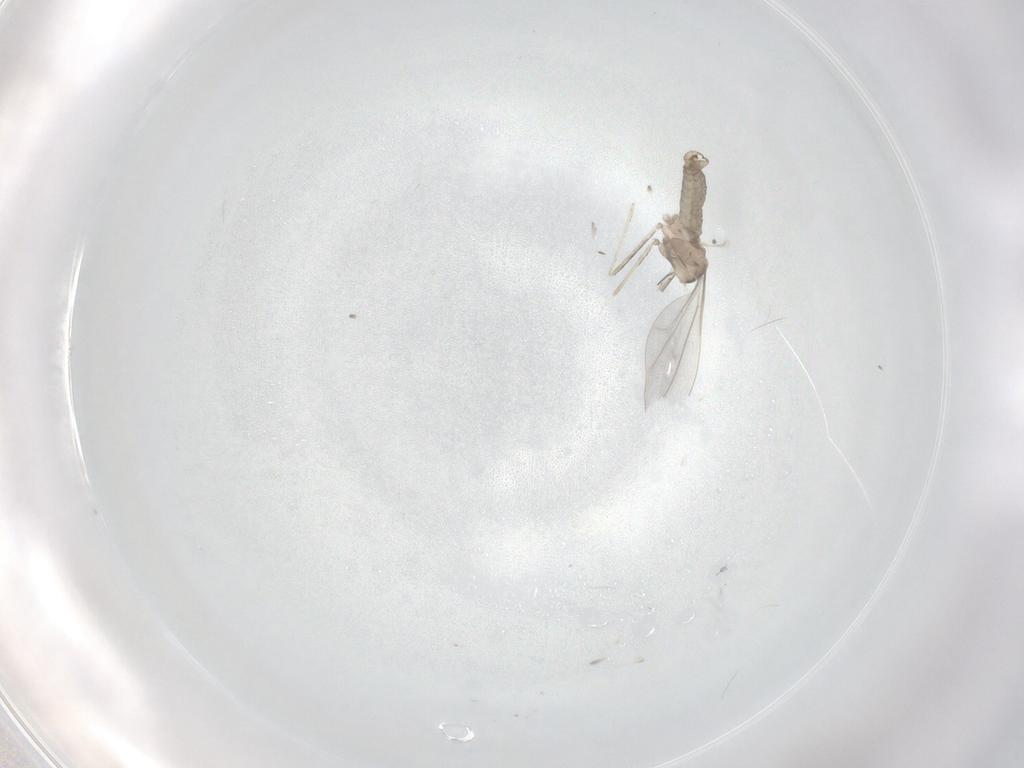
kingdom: Animalia
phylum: Arthropoda
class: Insecta
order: Diptera
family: Cecidomyiidae
